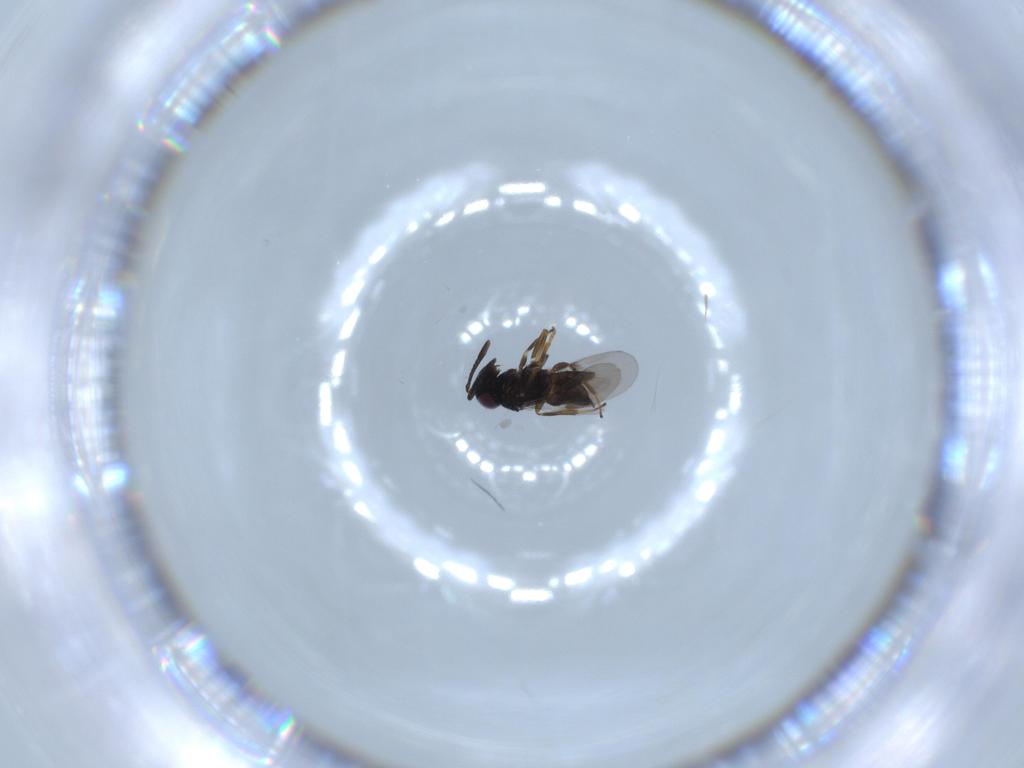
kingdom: Animalia
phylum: Arthropoda
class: Insecta
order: Hymenoptera
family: Encyrtidae
